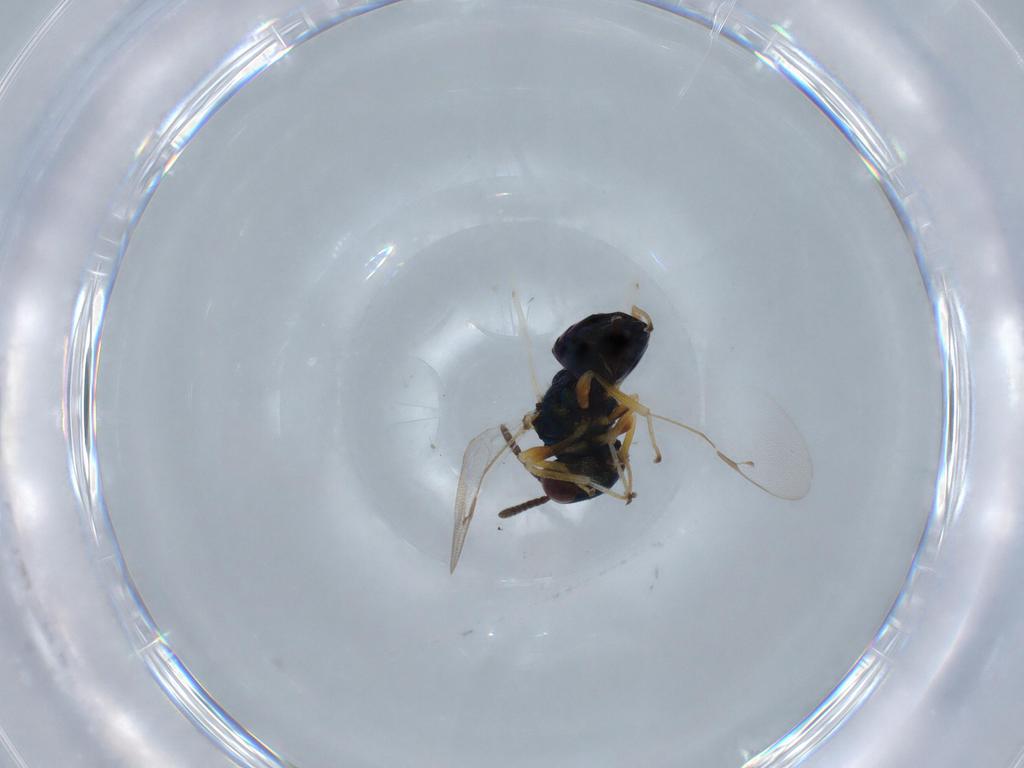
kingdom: Animalia
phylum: Arthropoda
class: Insecta
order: Hymenoptera
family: Pteromalidae
